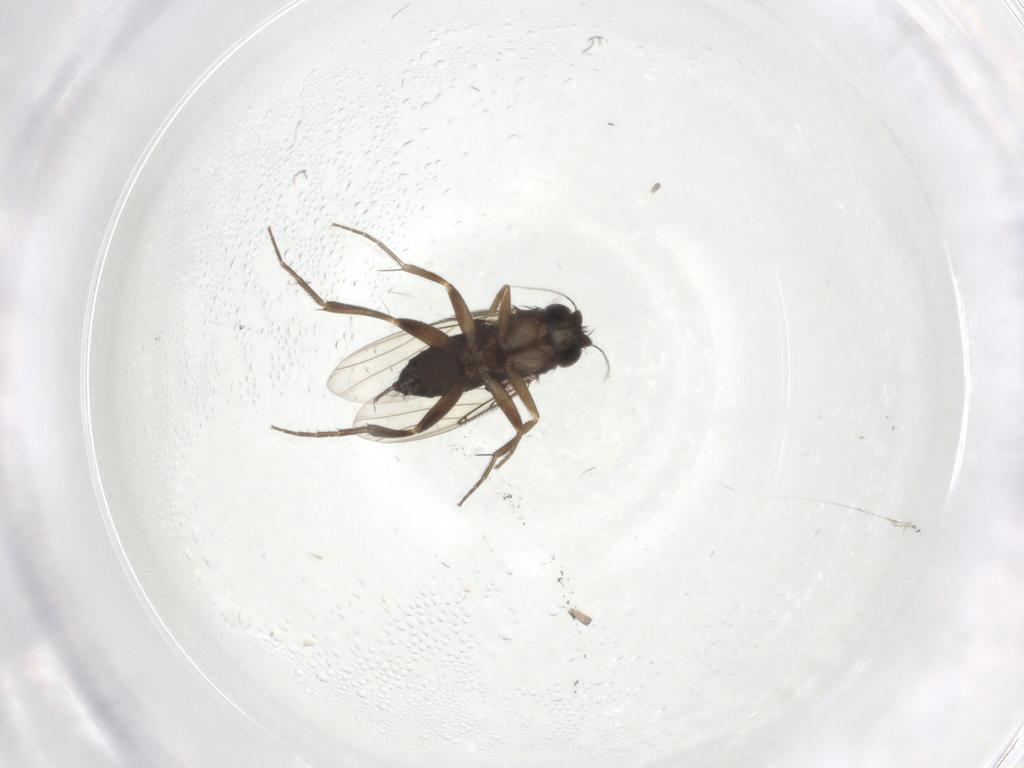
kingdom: Animalia
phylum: Arthropoda
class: Insecta
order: Diptera
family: Phoridae
